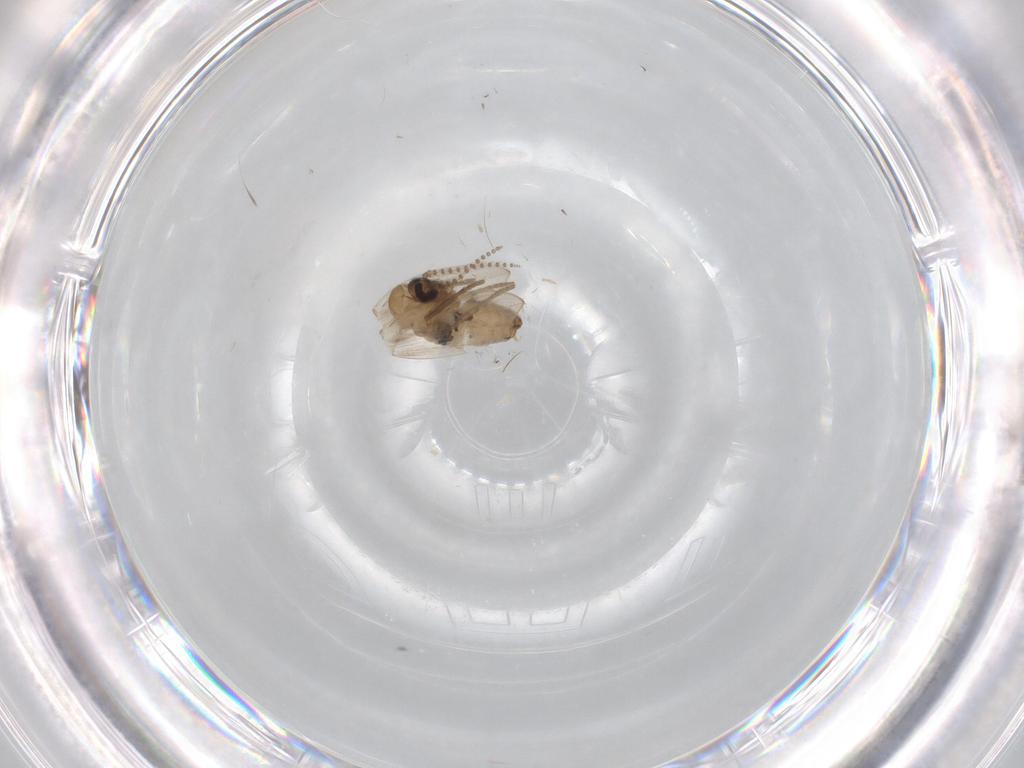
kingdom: Animalia
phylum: Arthropoda
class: Insecta
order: Diptera
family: Psychodidae
